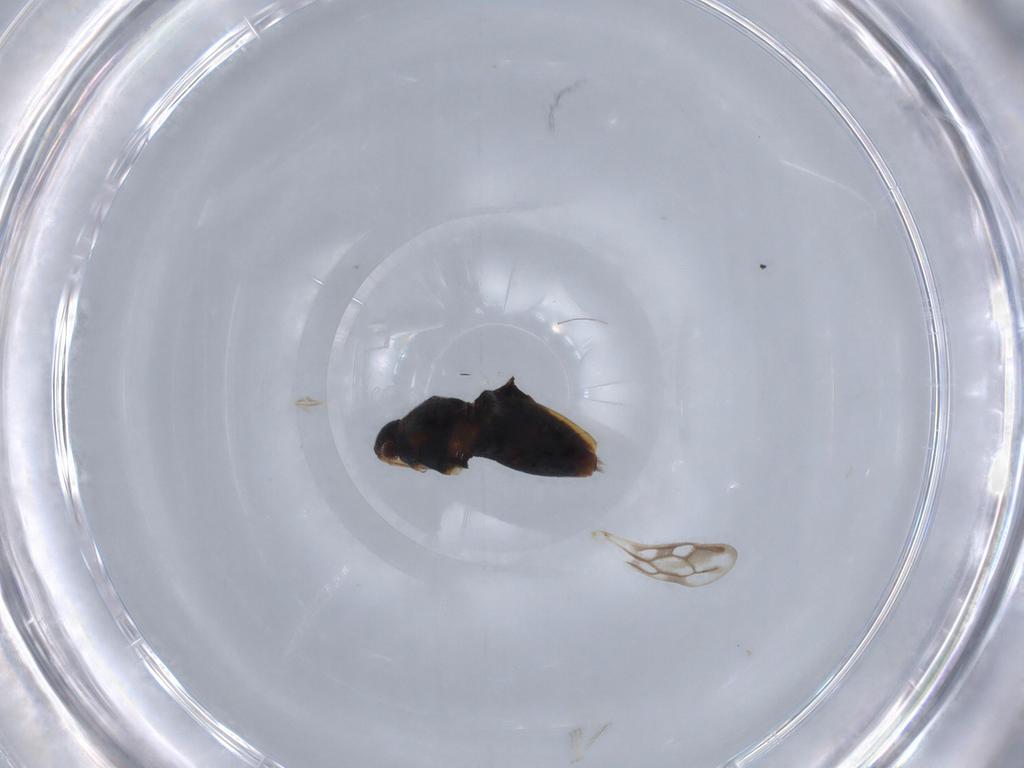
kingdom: Animalia
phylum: Arthropoda
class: Insecta
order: Hemiptera
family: Veliidae
